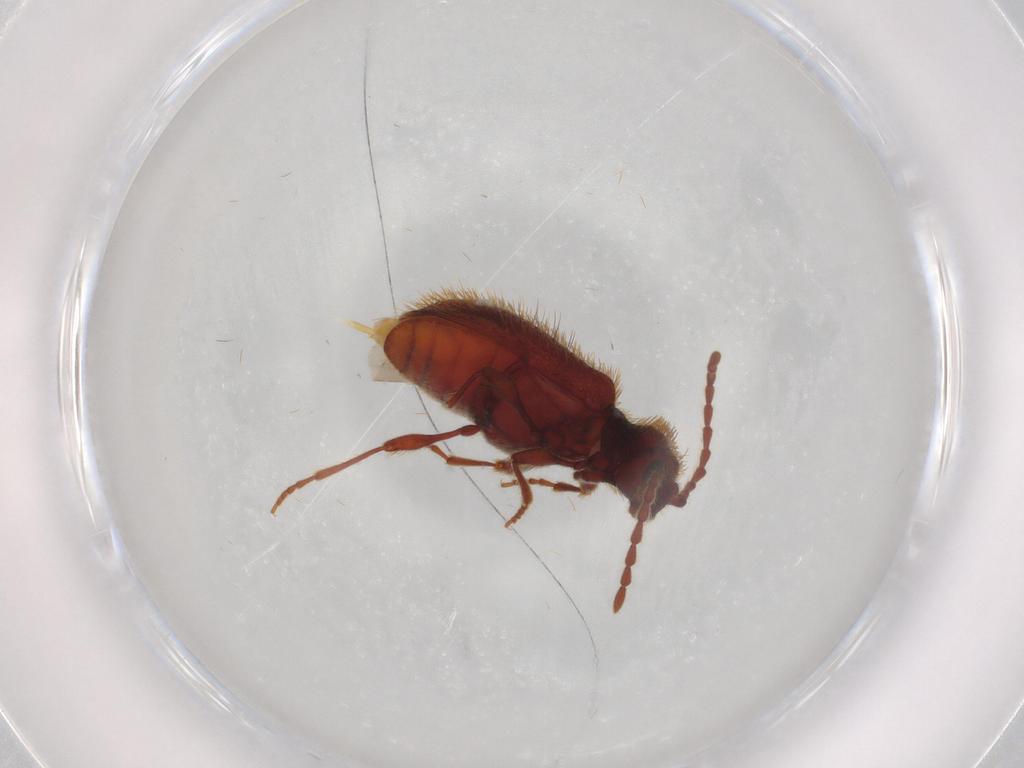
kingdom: Animalia
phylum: Arthropoda
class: Insecta
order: Coleoptera
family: Ptinidae
